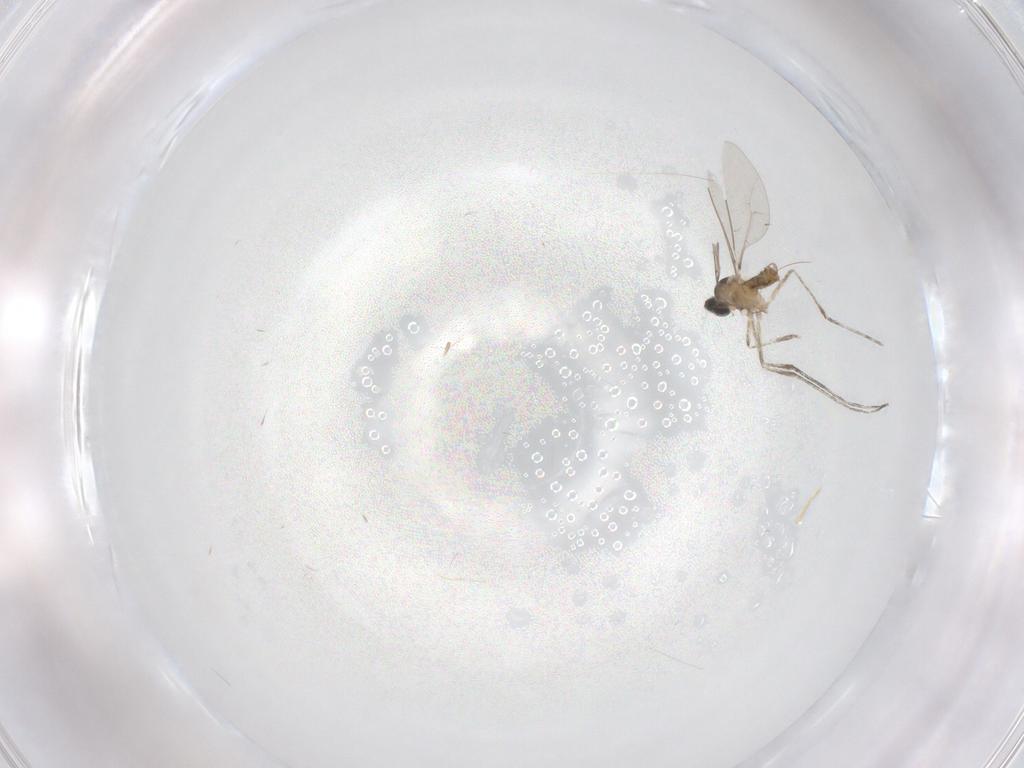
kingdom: Animalia
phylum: Arthropoda
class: Insecta
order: Diptera
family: Cecidomyiidae
